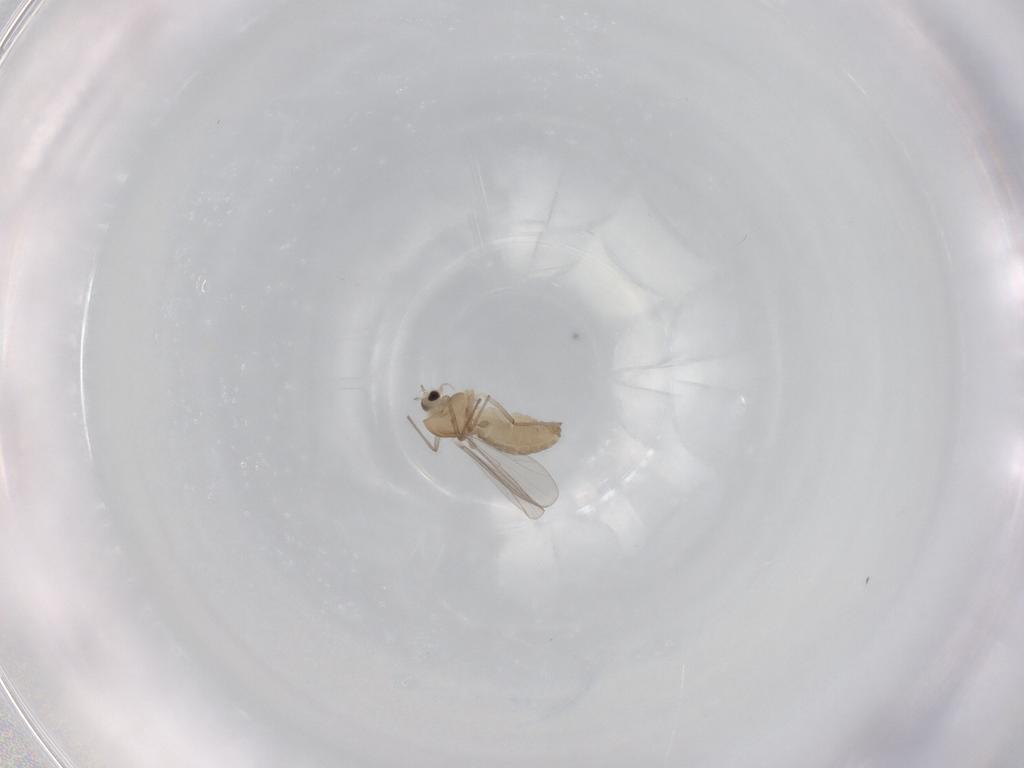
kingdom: Animalia
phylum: Arthropoda
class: Insecta
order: Diptera
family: Chironomidae
